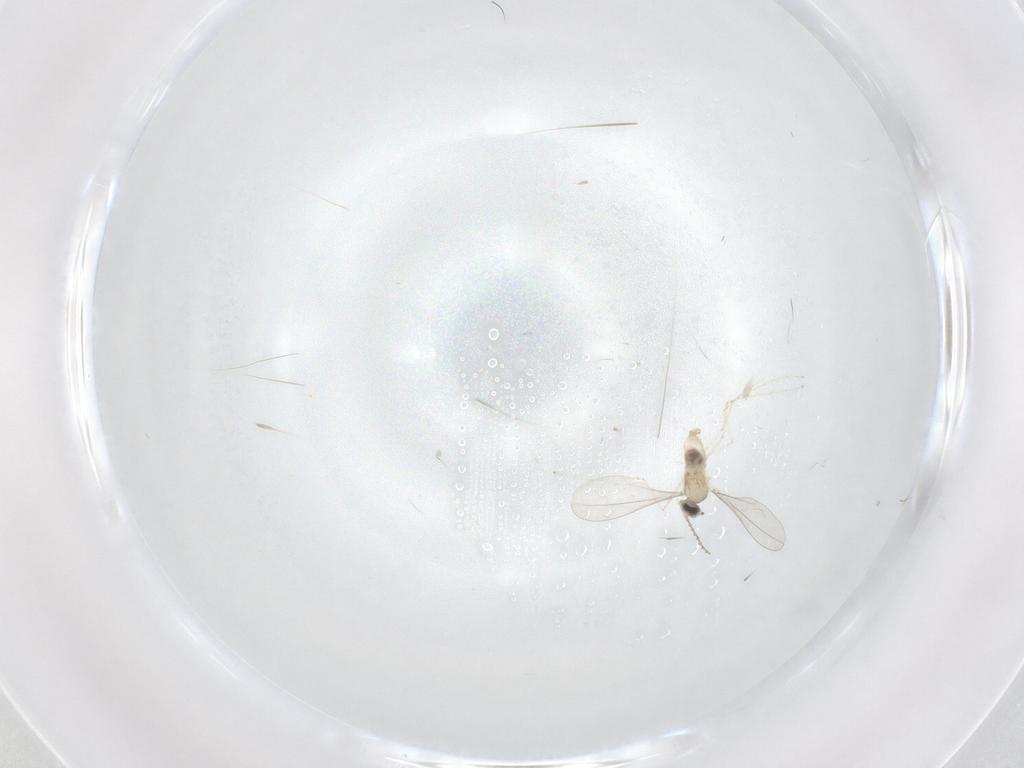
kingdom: Animalia
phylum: Arthropoda
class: Insecta
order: Diptera
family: Cecidomyiidae
